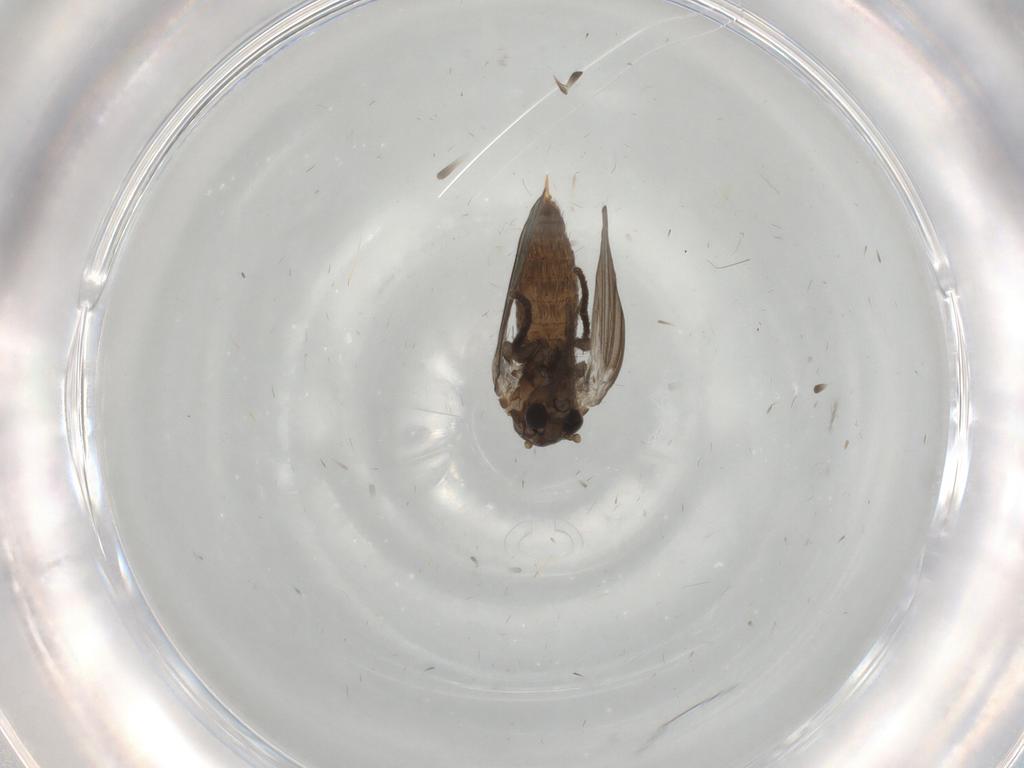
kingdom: Animalia
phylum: Arthropoda
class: Insecta
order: Diptera
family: Psychodidae
